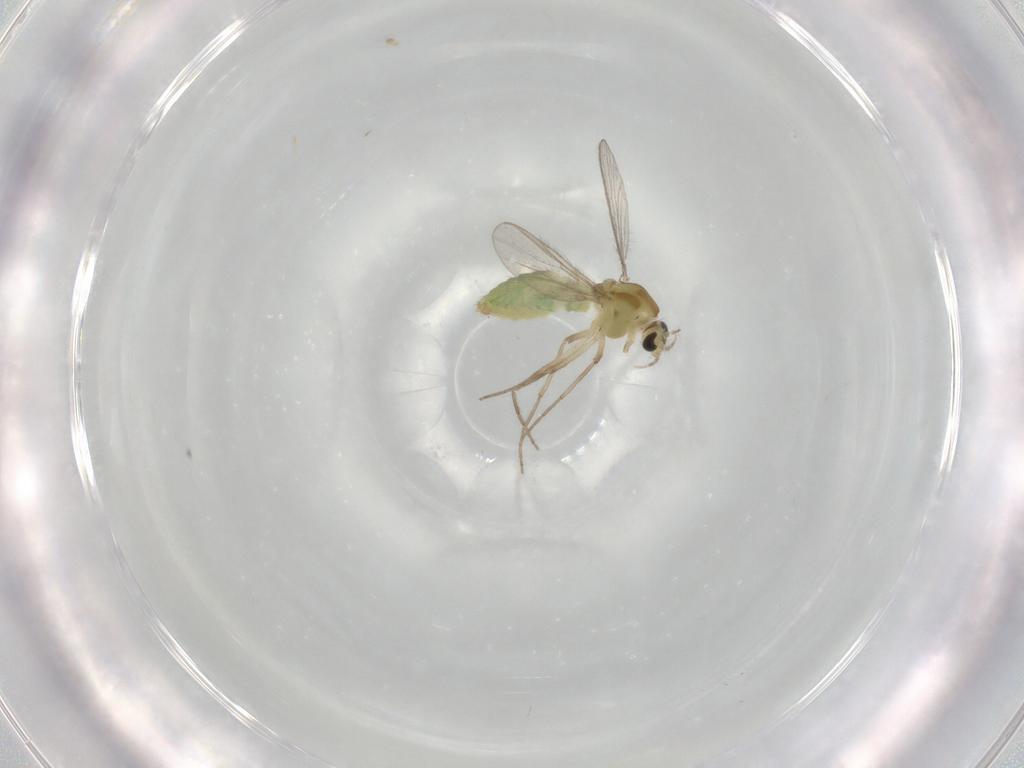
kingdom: Animalia
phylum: Arthropoda
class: Insecta
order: Diptera
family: Chironomidae
